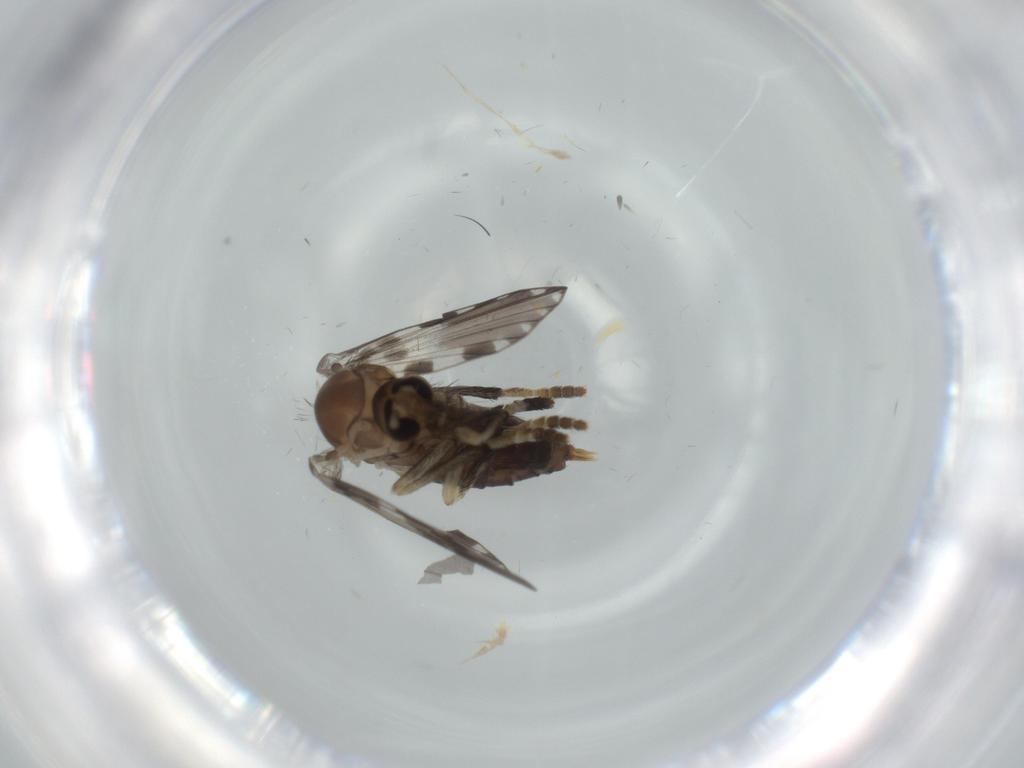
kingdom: Animalia
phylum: Arthropoda
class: Insecta
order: Diptera
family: Psychodidae
